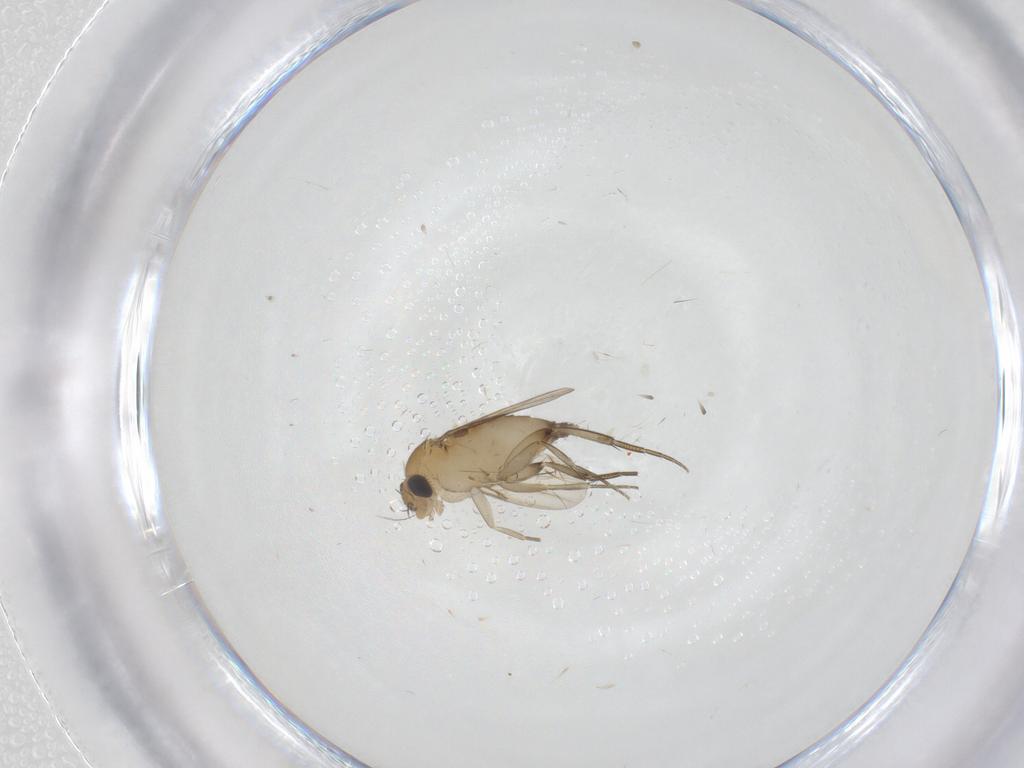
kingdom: Animalia
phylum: Arthropoda
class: Insecta
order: Diptera
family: Phoridae
